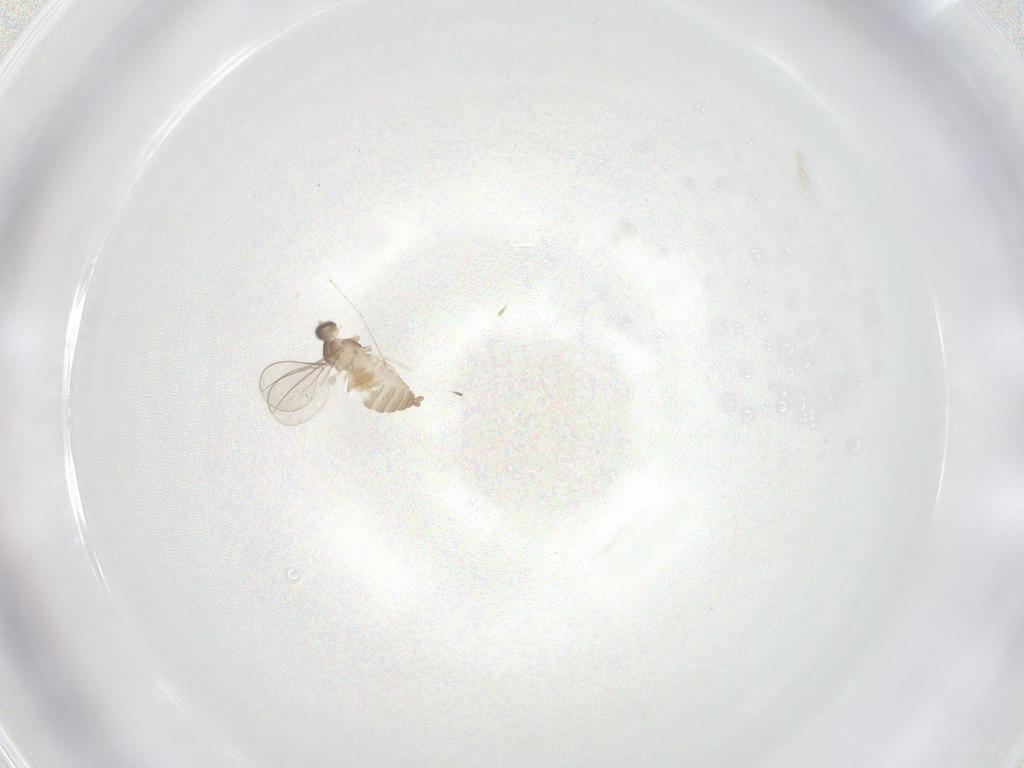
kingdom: Animalia
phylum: Arthropoda
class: Insecta
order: Diptera
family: Cecidomyiidae
